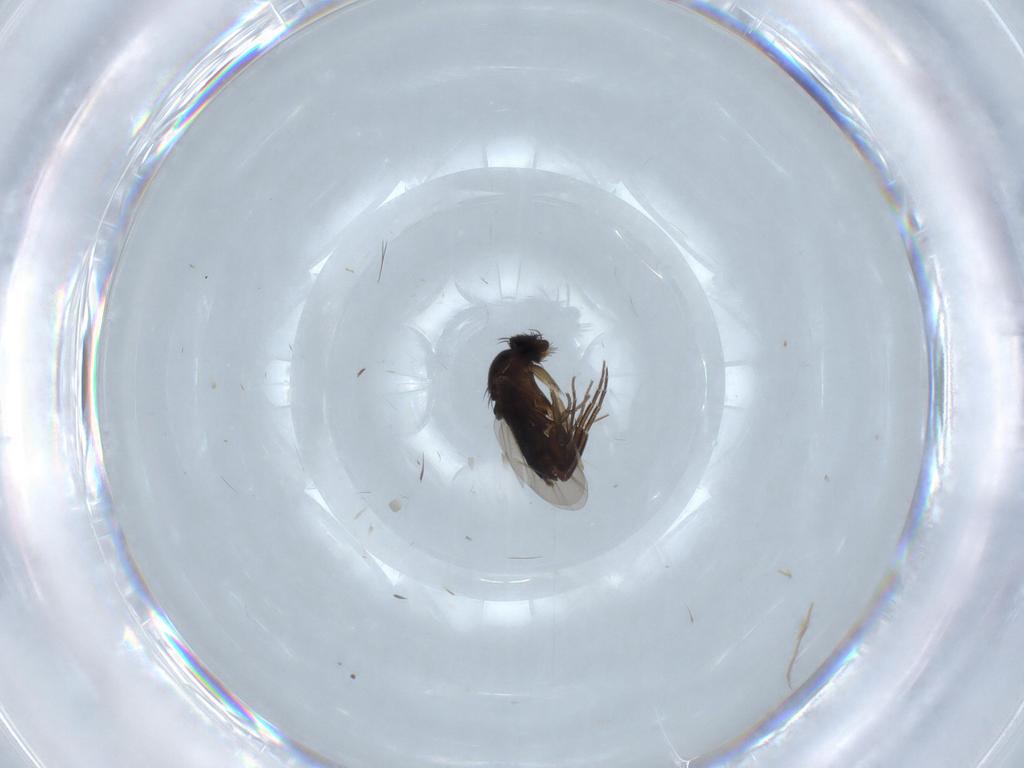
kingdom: Animalia
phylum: Arthropoda
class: Insecta
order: Diptera
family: Phoridae
